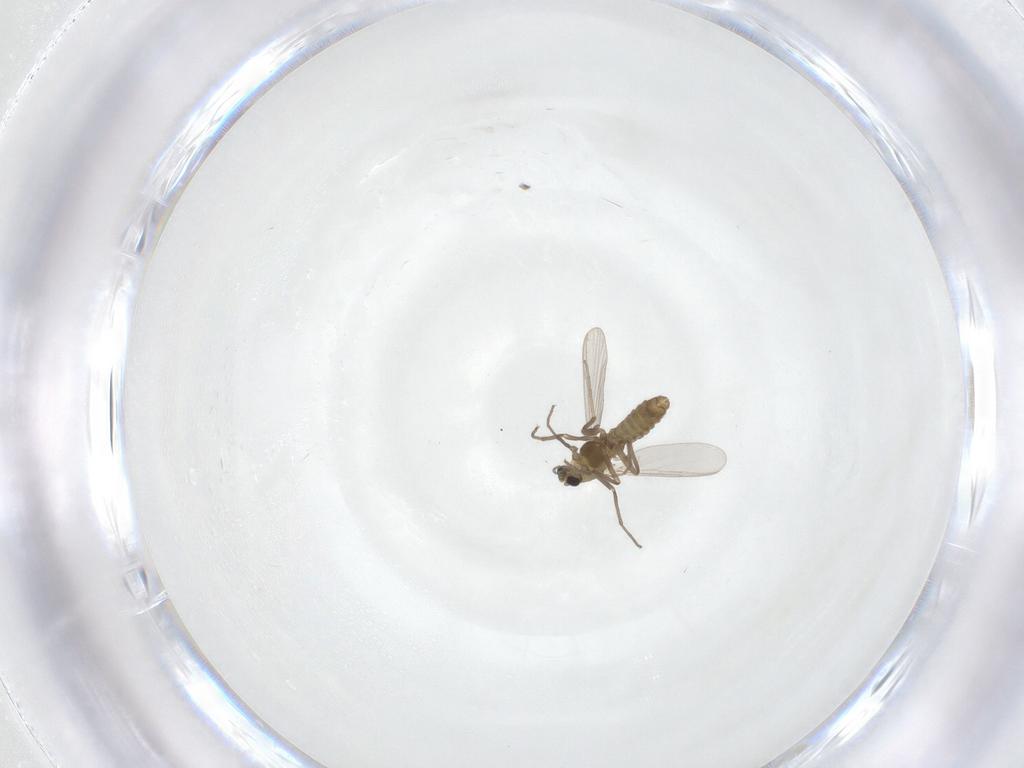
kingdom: Animalia
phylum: Arthropoda
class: Insecta
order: Diptera
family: Chironomidae
